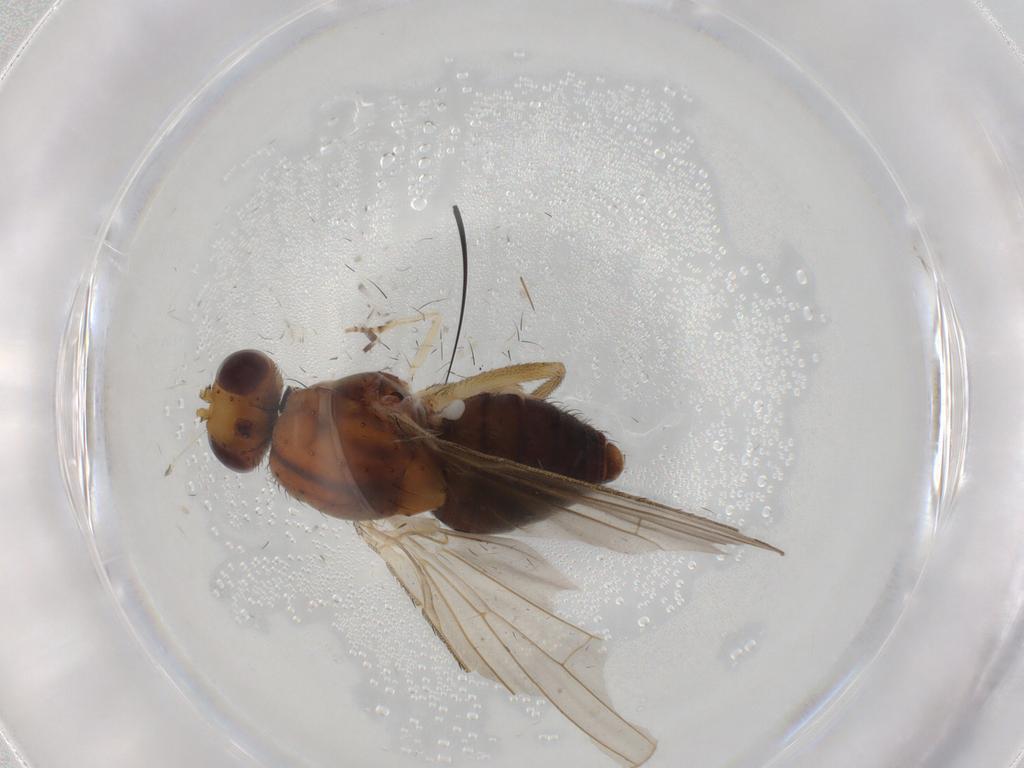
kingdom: Animalia
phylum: Arthropoda
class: Insecta
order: Diptera
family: Heleomyzidae
